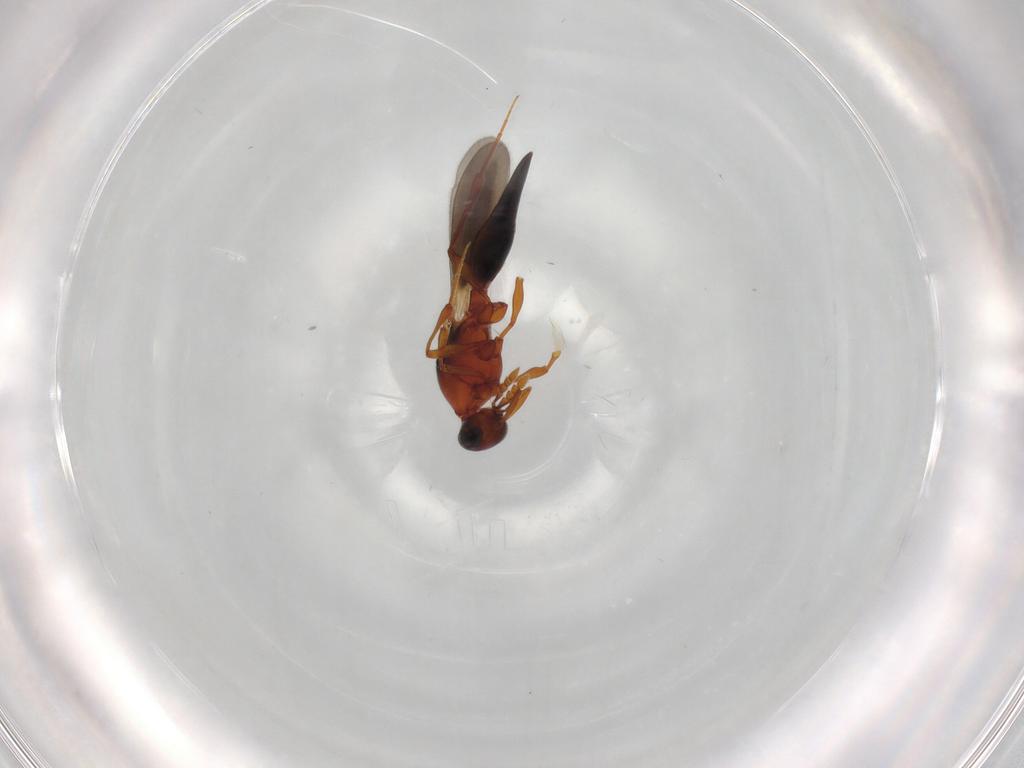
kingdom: Animalia
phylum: Arthropoda
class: Insecta
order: Hymenoptera
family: Platygastridae
